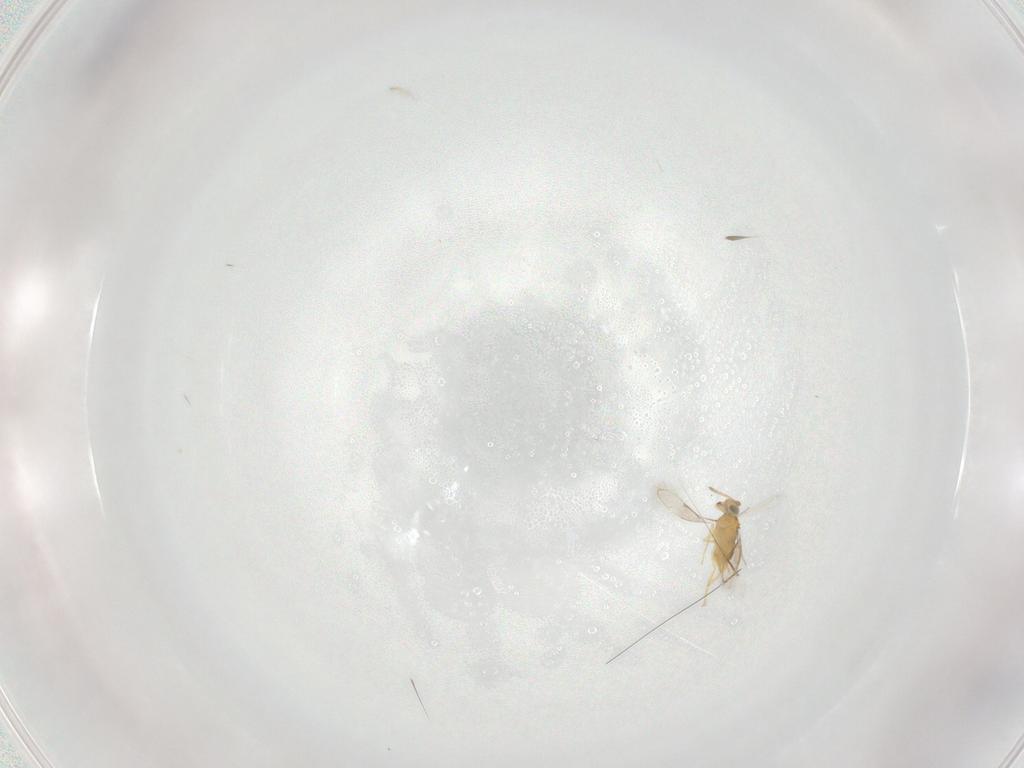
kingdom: Animalia
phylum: Arthropoda
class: Insecta
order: Hymenoptera
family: Aphelinidae
